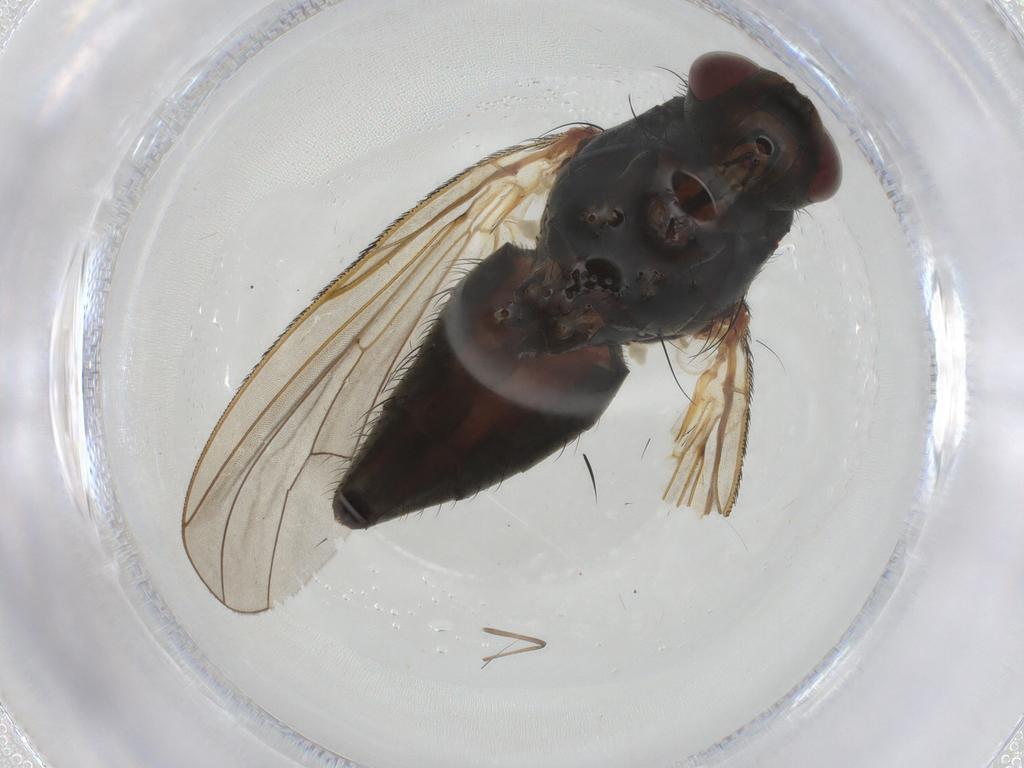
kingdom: Animalia
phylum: Arthropoda
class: Insecta
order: Diptera
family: Anthomyiidae
